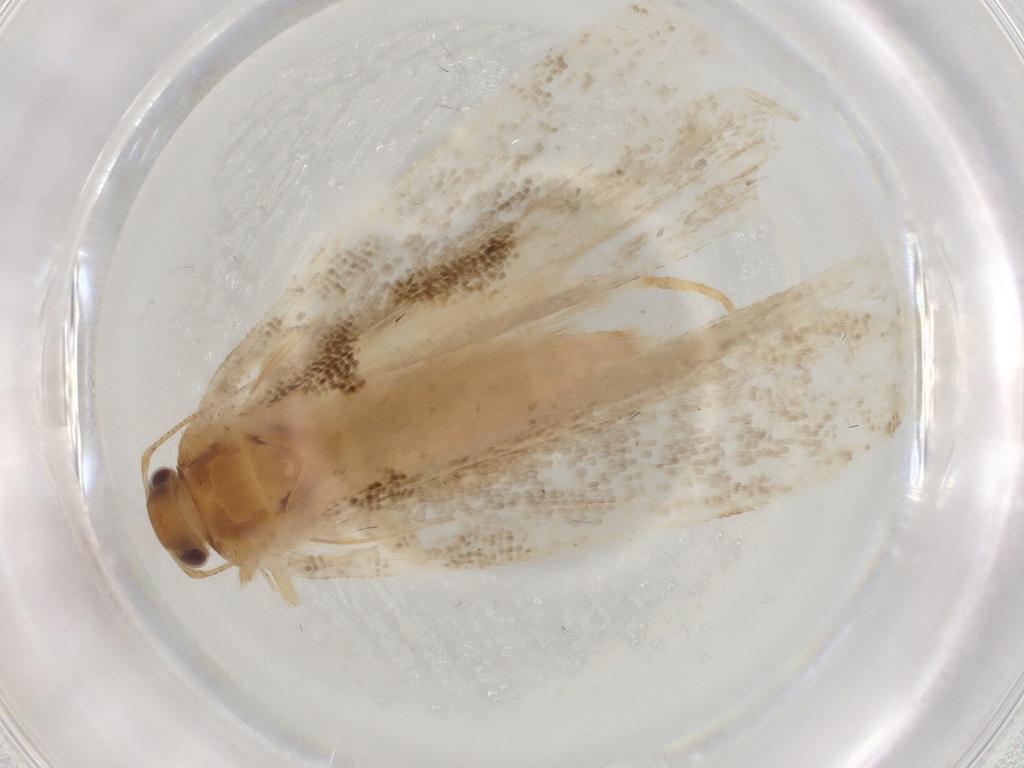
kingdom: Animalia
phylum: Arthropoda
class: Insecta
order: Lepidoptera
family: Gelechiidae
